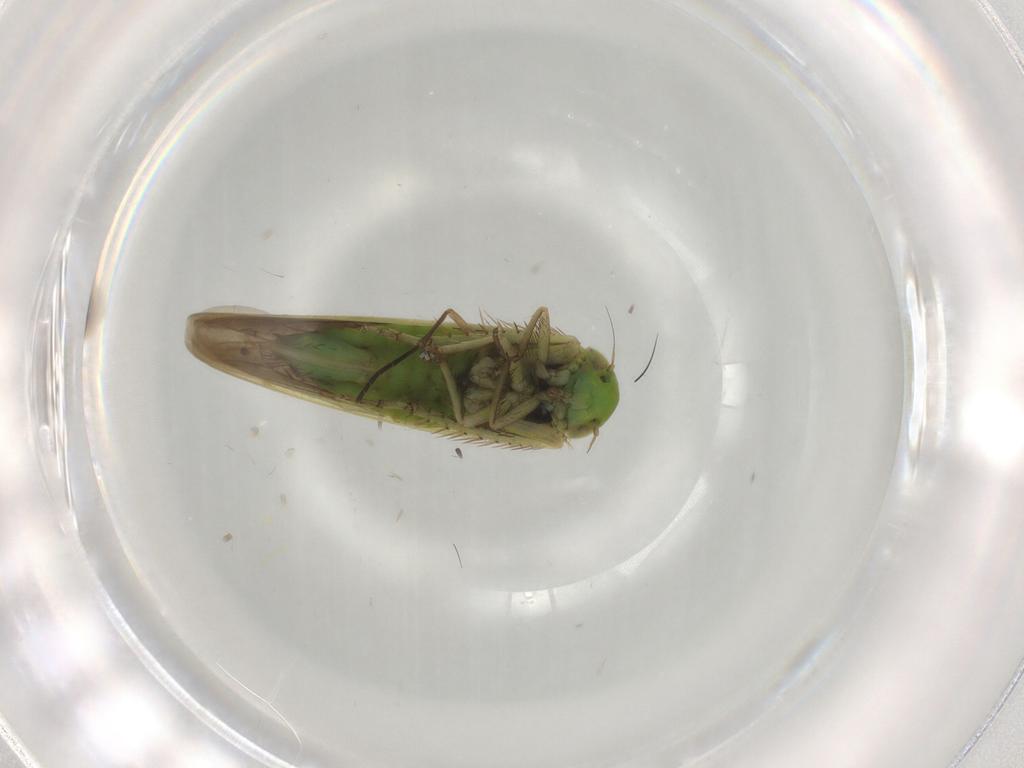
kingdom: Animalia
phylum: Arthropoda
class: Insecta
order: Hemiptera
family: Cicadellidae
